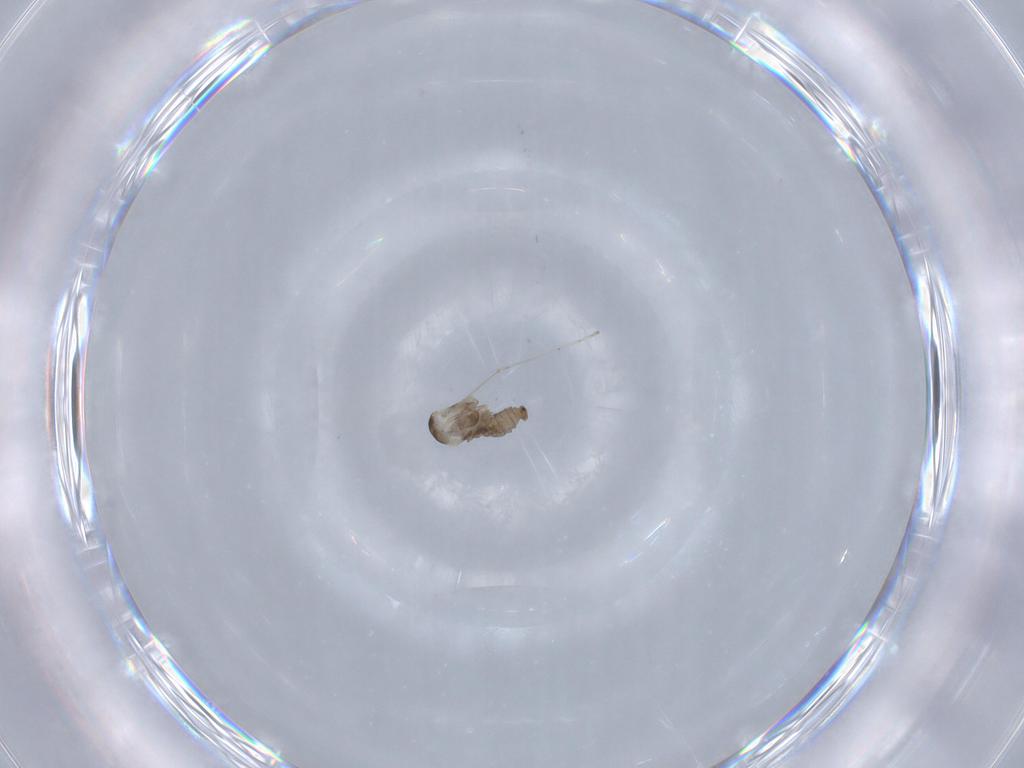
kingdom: Animalia
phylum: Arthropoda
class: Insecta
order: Diptera
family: Cecidomyiidae
